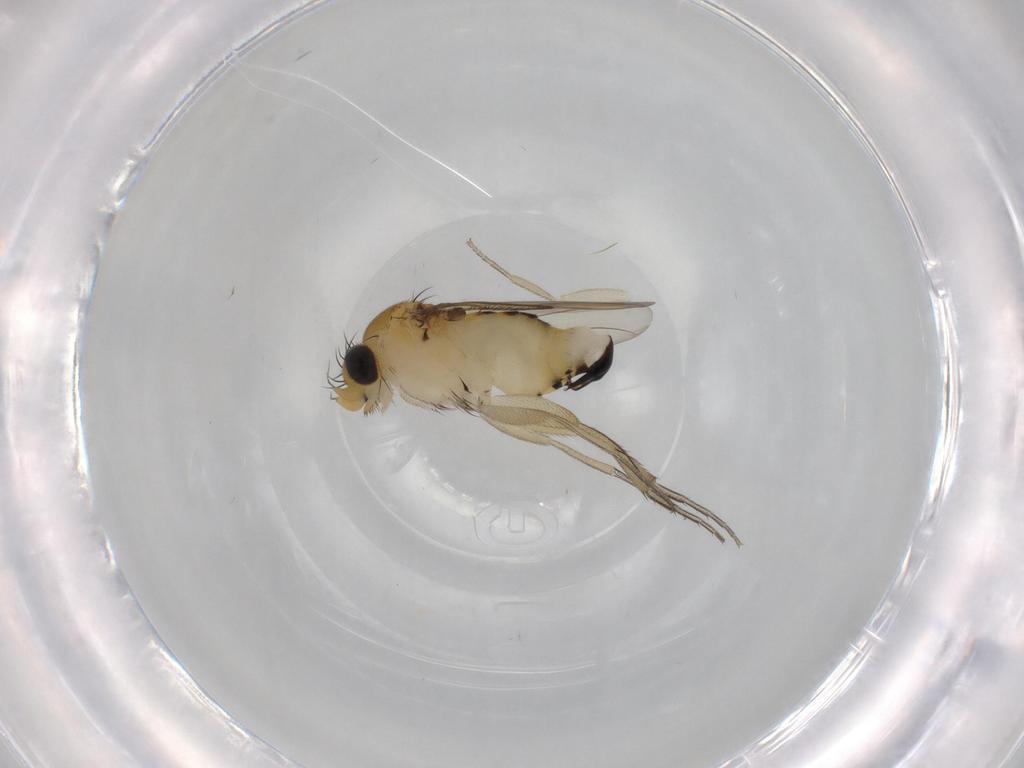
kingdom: Animalia
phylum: Arthropoda
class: Insecta
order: Diptera
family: Phoridae
